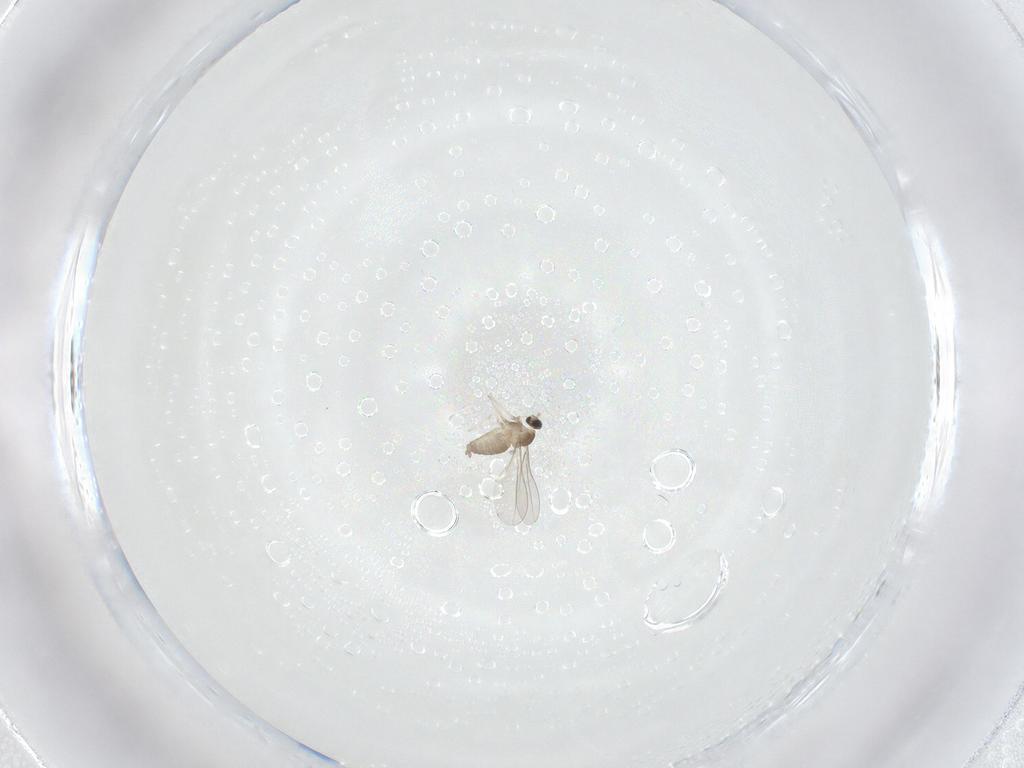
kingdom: Animalia
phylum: Arthropoda
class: Insecta
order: Diptera
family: Cecidomyiidae
